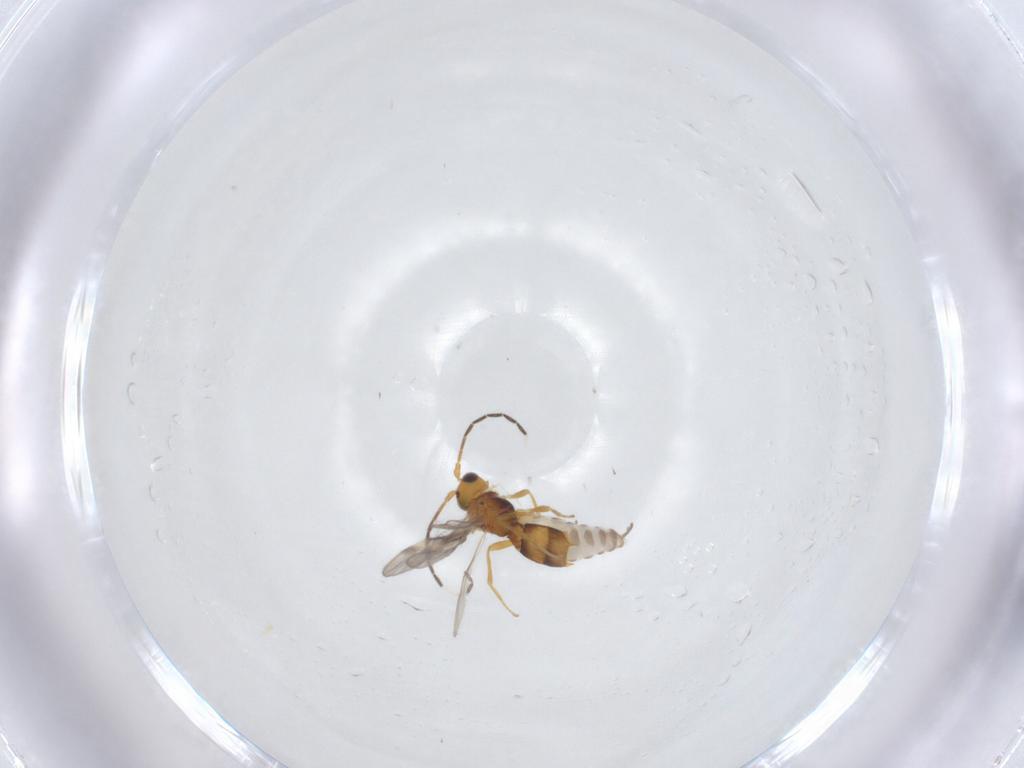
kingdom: Animalia
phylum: Arthropoda
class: Insecta
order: Hymenoptera
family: Braconidae
